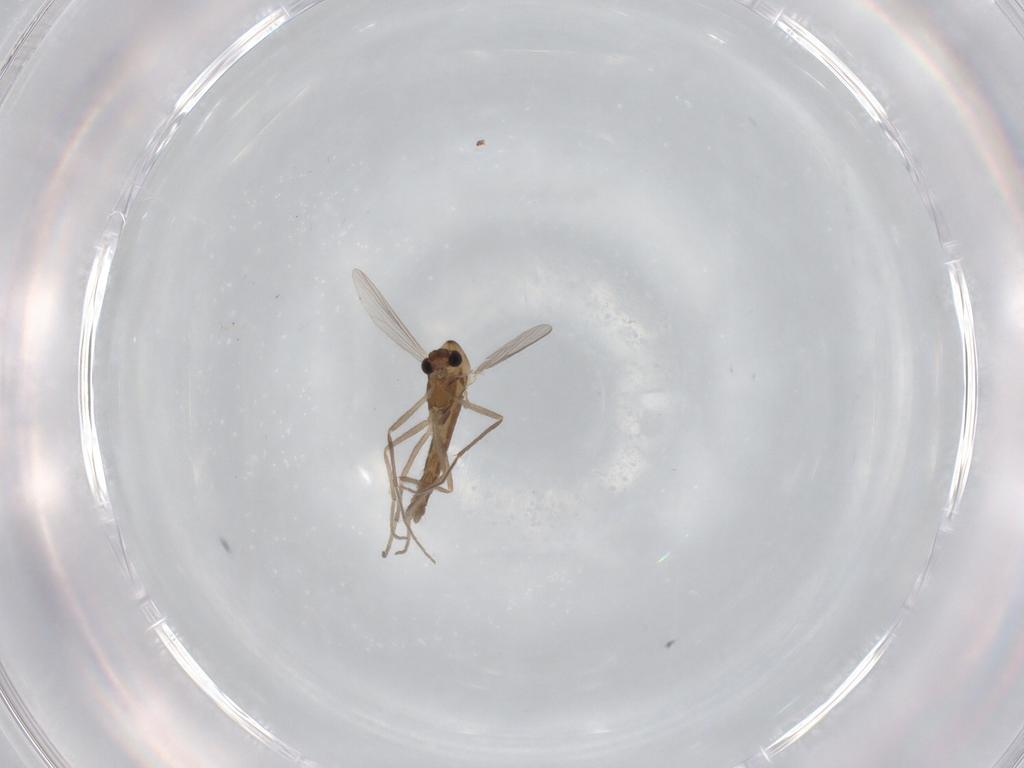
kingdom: Animalia
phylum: Arthropoda
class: Insecta
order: Diptera
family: Chironomidae
